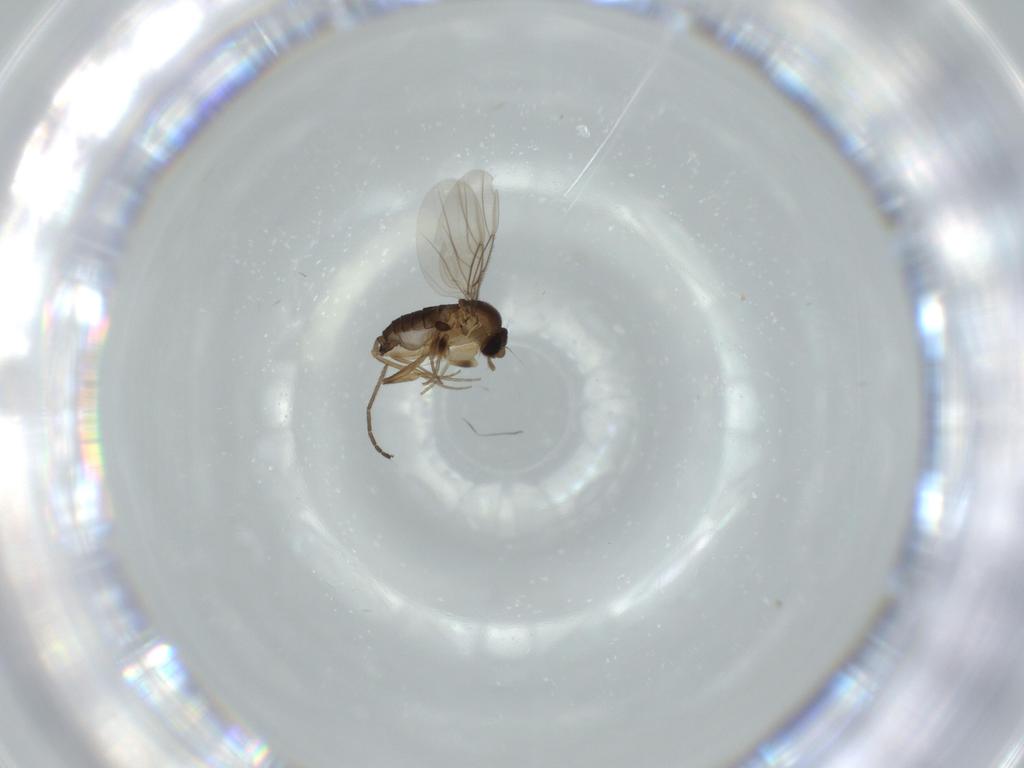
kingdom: Animalia
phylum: Arthropoda
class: Insecta
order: Diptera
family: Phoridae
